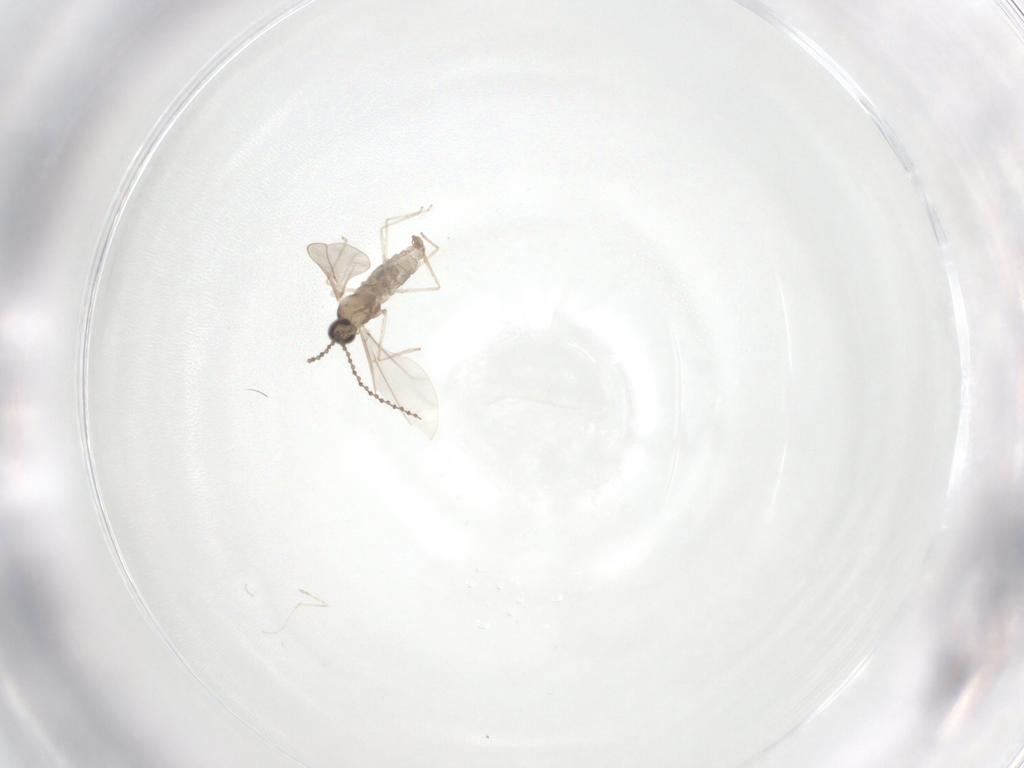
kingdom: Animalia
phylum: Arthropoda
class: Insecta
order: Diptera
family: Cecidomyiidae
